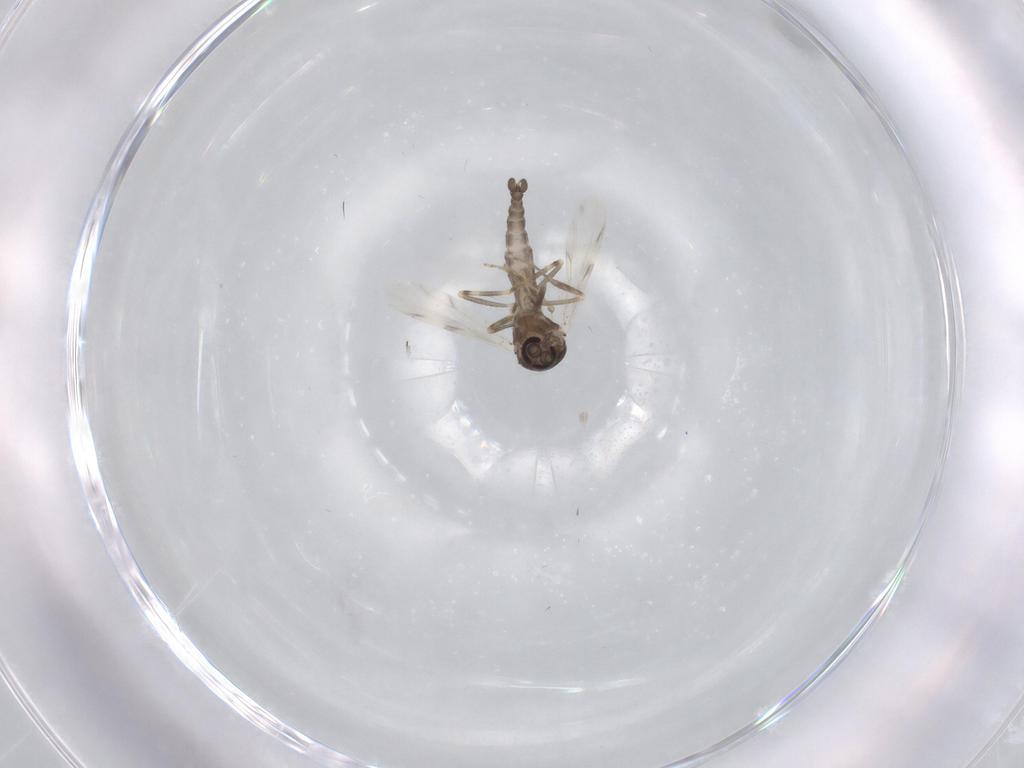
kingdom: Animalia
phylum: Arthropoda
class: Insecta
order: Diptera
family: Ceratopogonidae
